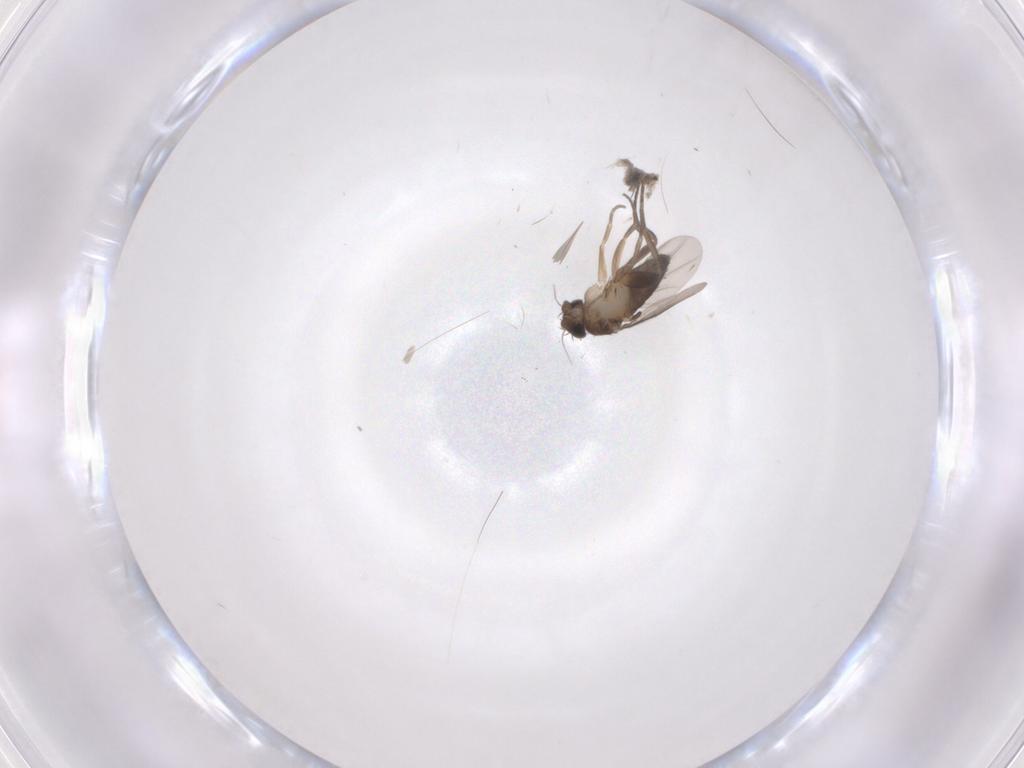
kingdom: Animalia
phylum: Arthropoda
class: Insecta
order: Diptera
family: Phoridae
